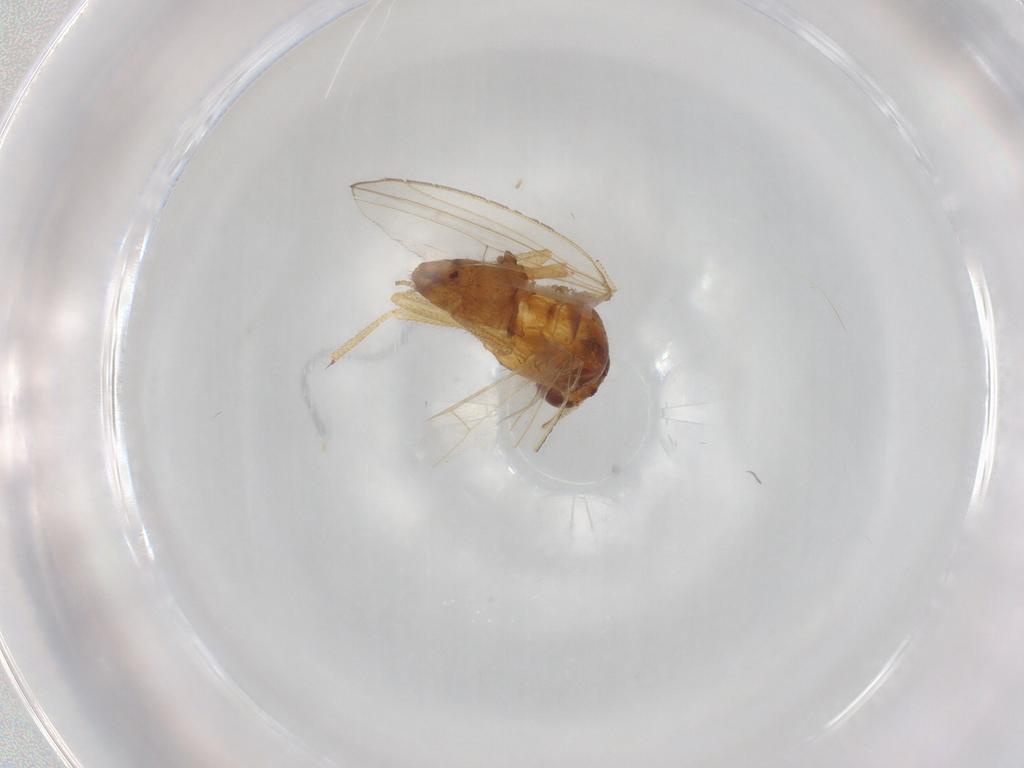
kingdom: Animalia
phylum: Arthropoda
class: Insecta
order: Diptera
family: Drosophilidae
